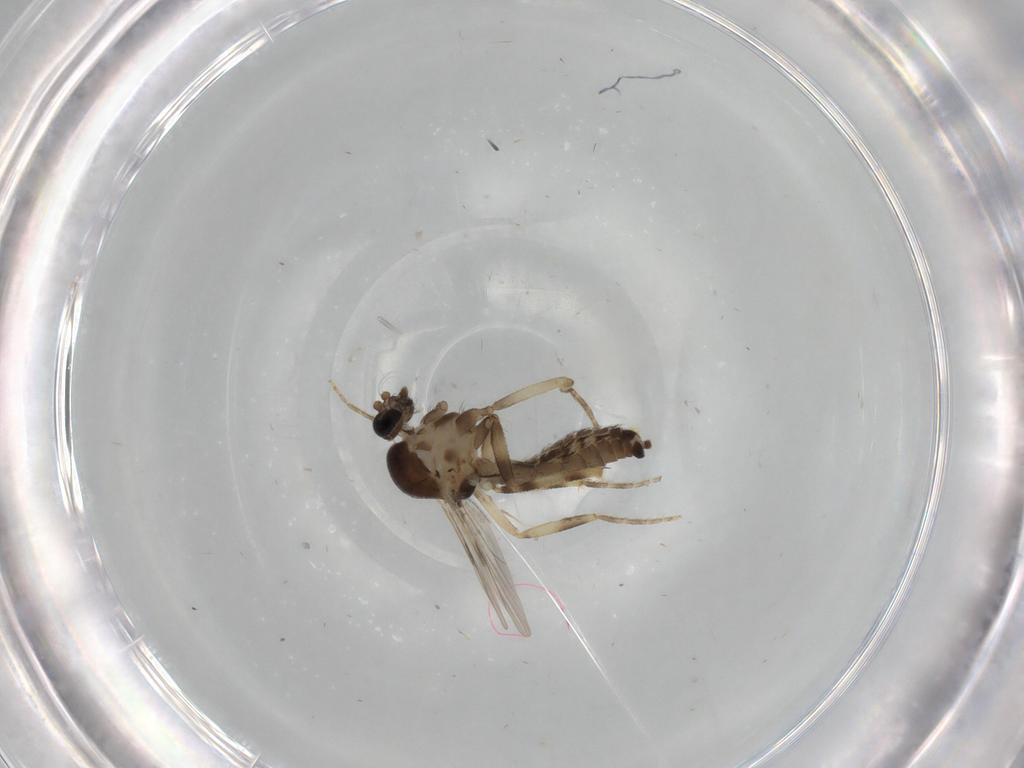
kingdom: Animalia
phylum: Arthropoda
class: Insecta
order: Diptera
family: Ceratopogonidae
